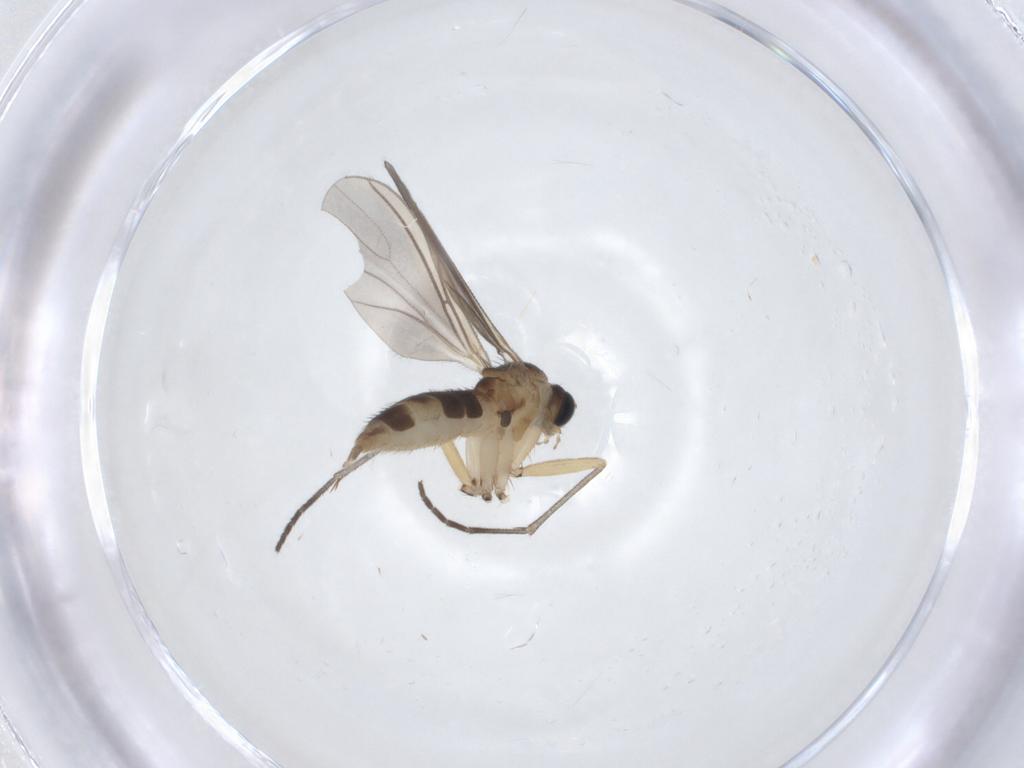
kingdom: Animalia
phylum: Arthropoda
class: Insecta
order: Diptera
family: Sciaridae
